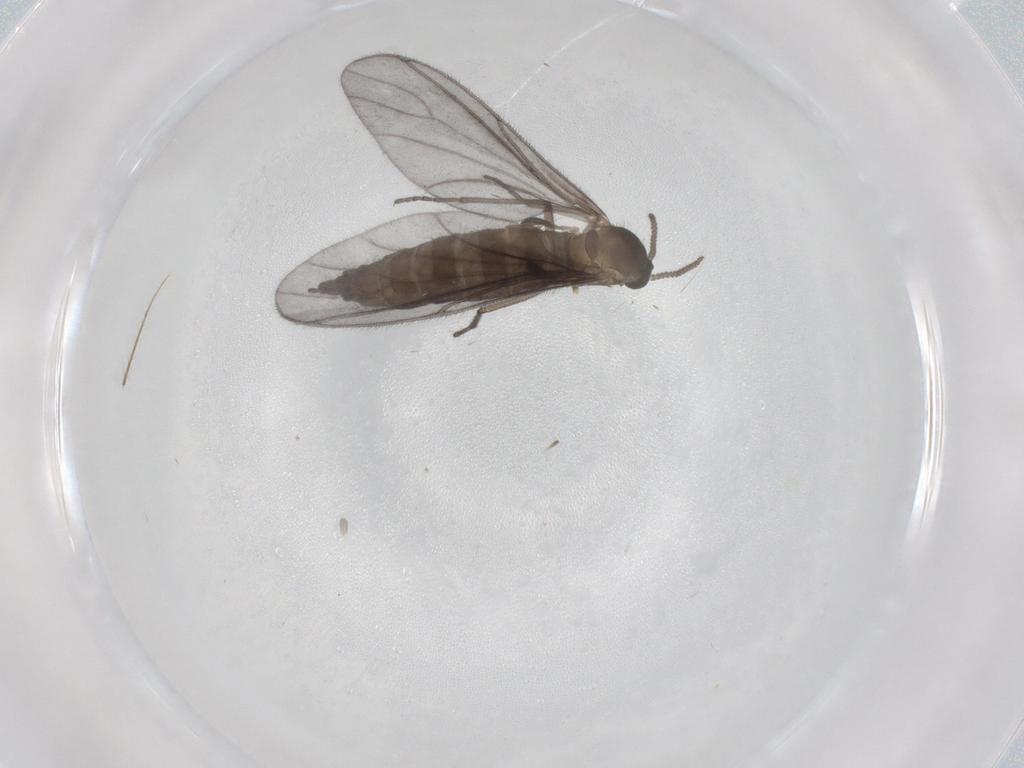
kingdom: Animalia
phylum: Arthropoda
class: Insecta
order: Diptera
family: Sciaridae
